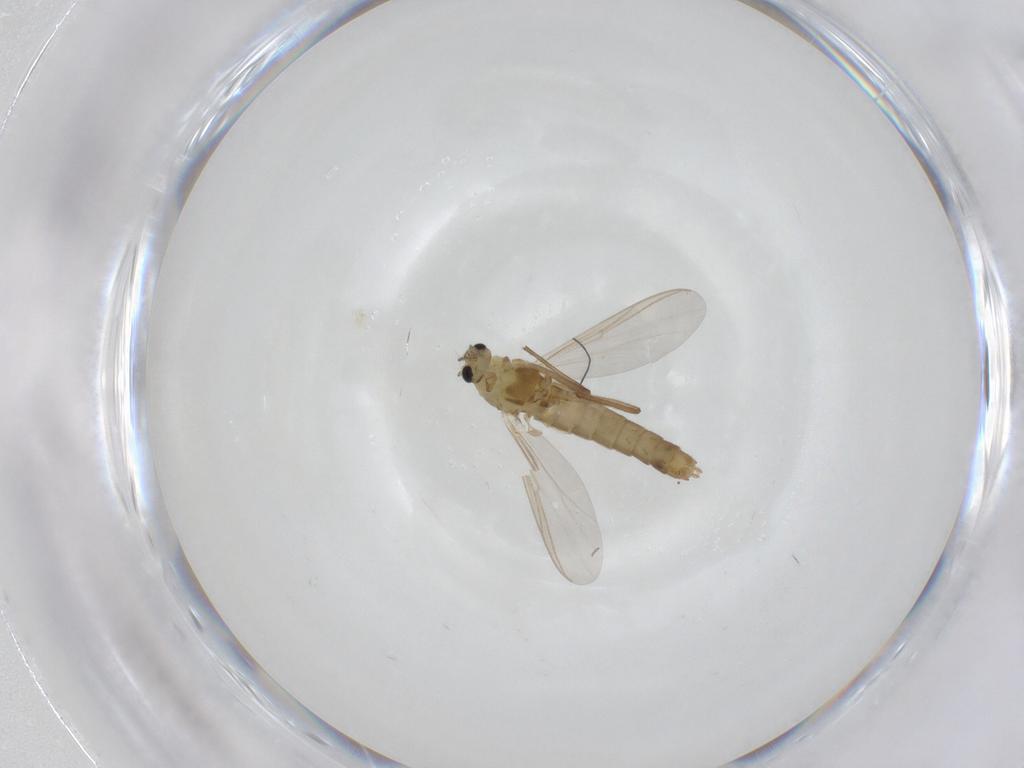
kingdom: Animalia
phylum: Arthropoda
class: Insecta
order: Diptera
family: Chironomidae
